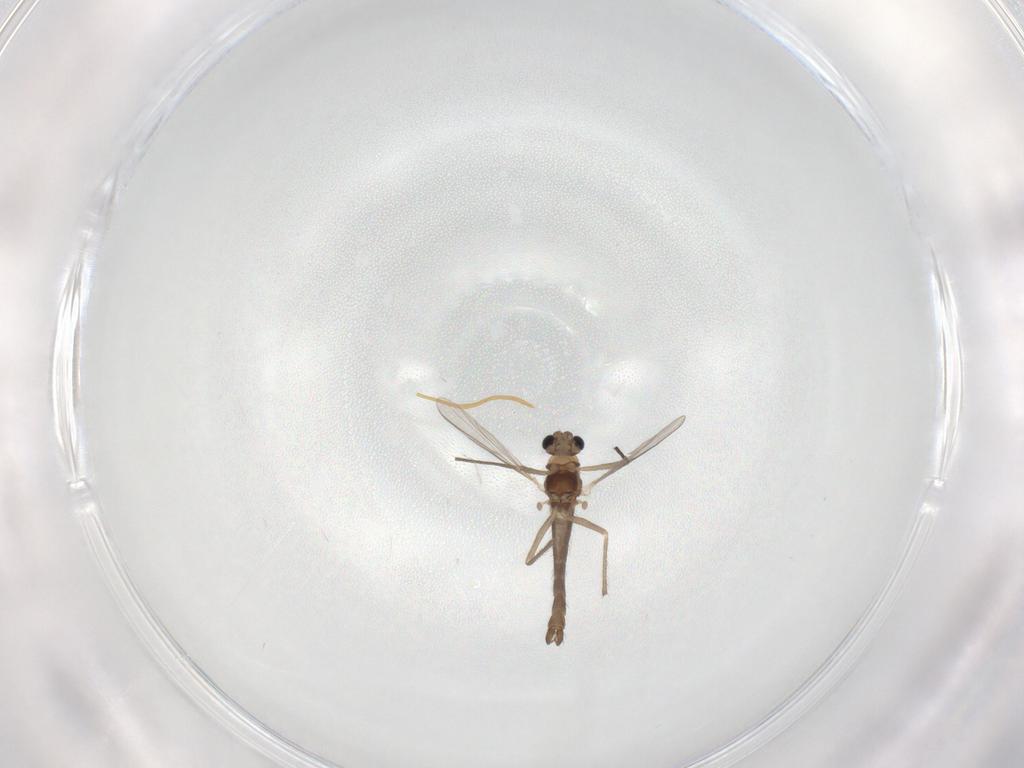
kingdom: Animalia
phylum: Arthropoda
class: Insecta
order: Diptera
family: Chironomidae
